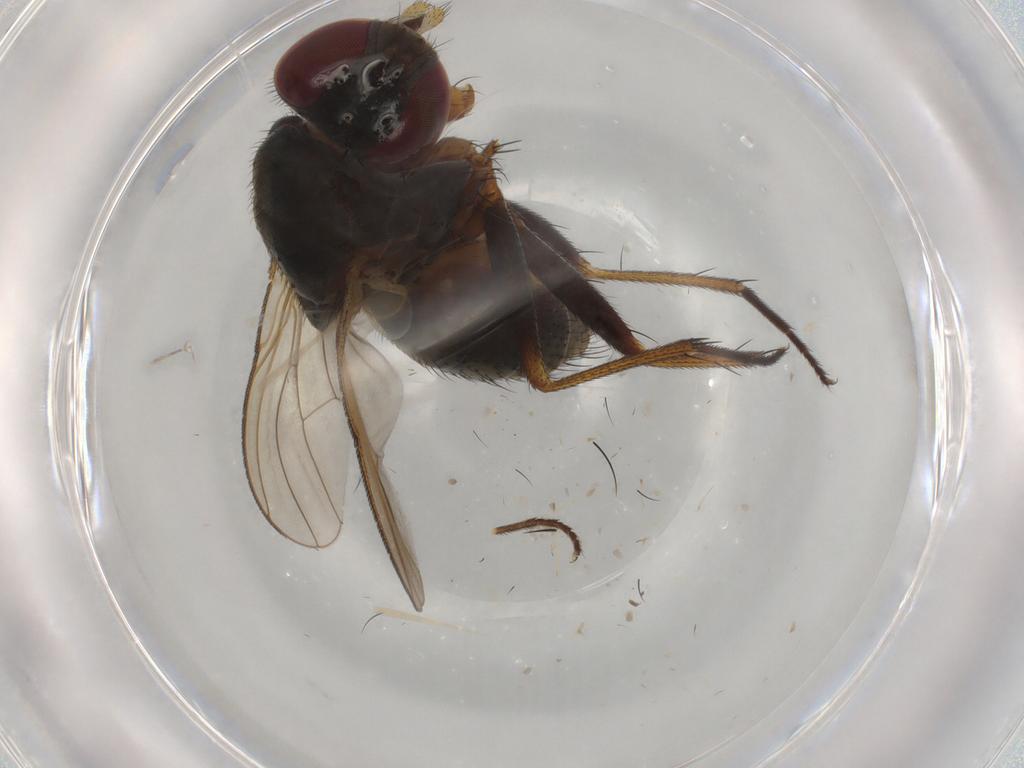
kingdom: Animalia
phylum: Arthropoda
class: Insecta
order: Diptera
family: Muscidae
